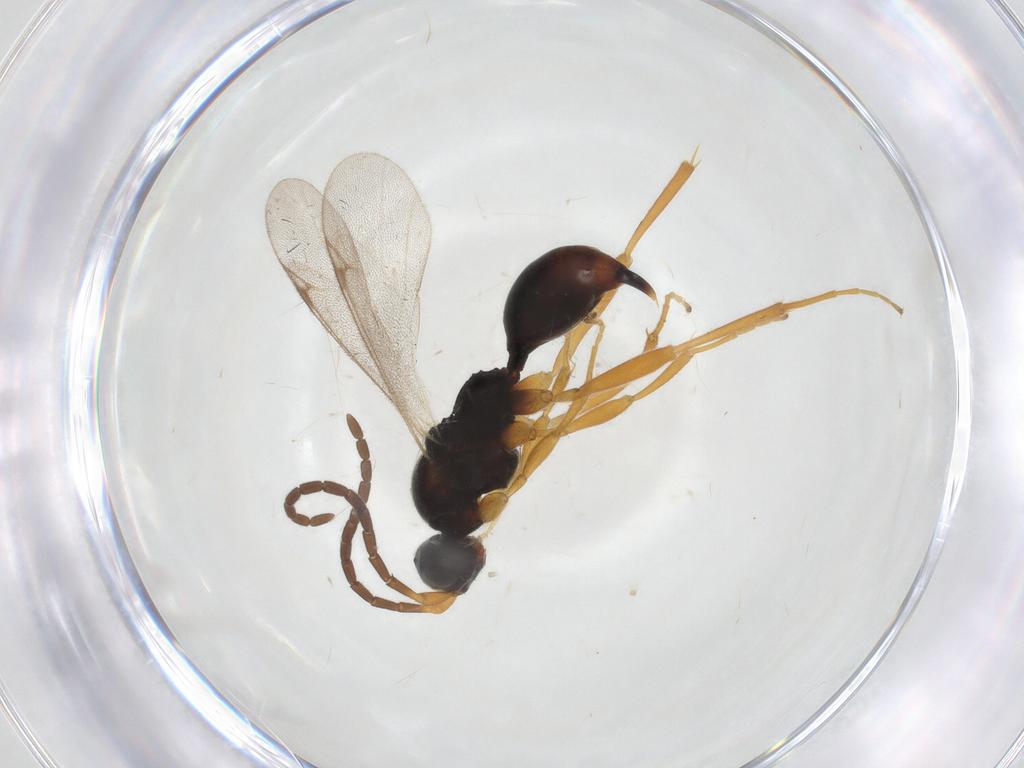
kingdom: Animalia
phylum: Arthropoda
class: Insecta
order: Hymenoptera
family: Proctotrupidae
